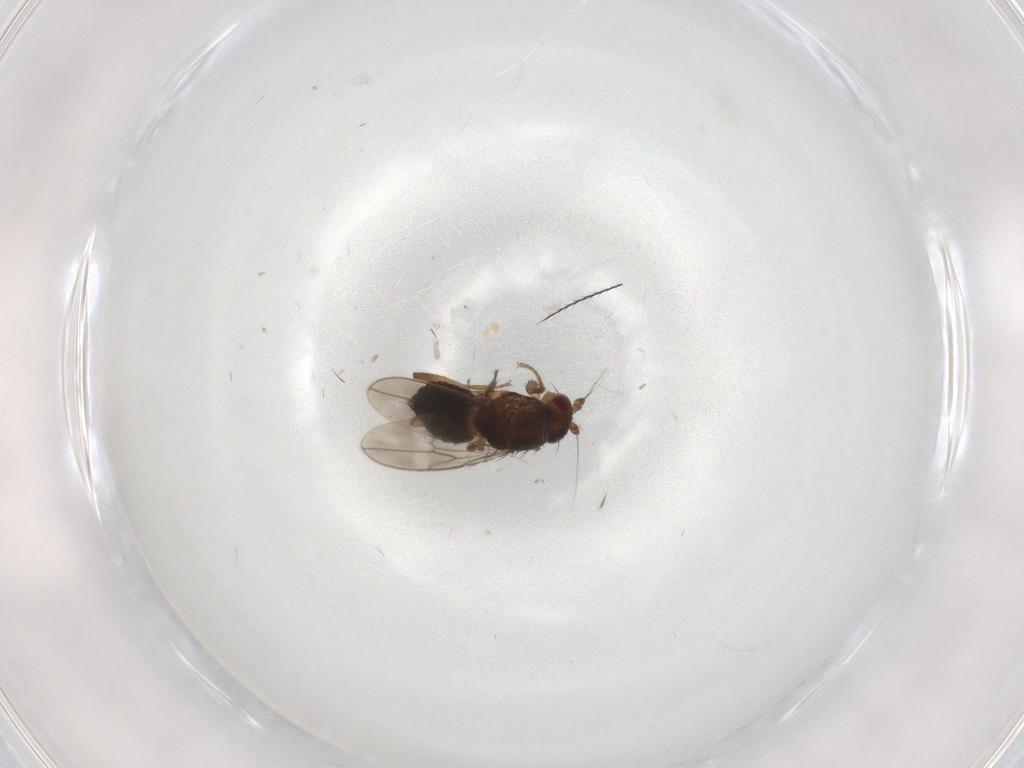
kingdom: Animalia
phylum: Arthropoda
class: Insecta
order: Diptera
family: Sphaeroceridae
